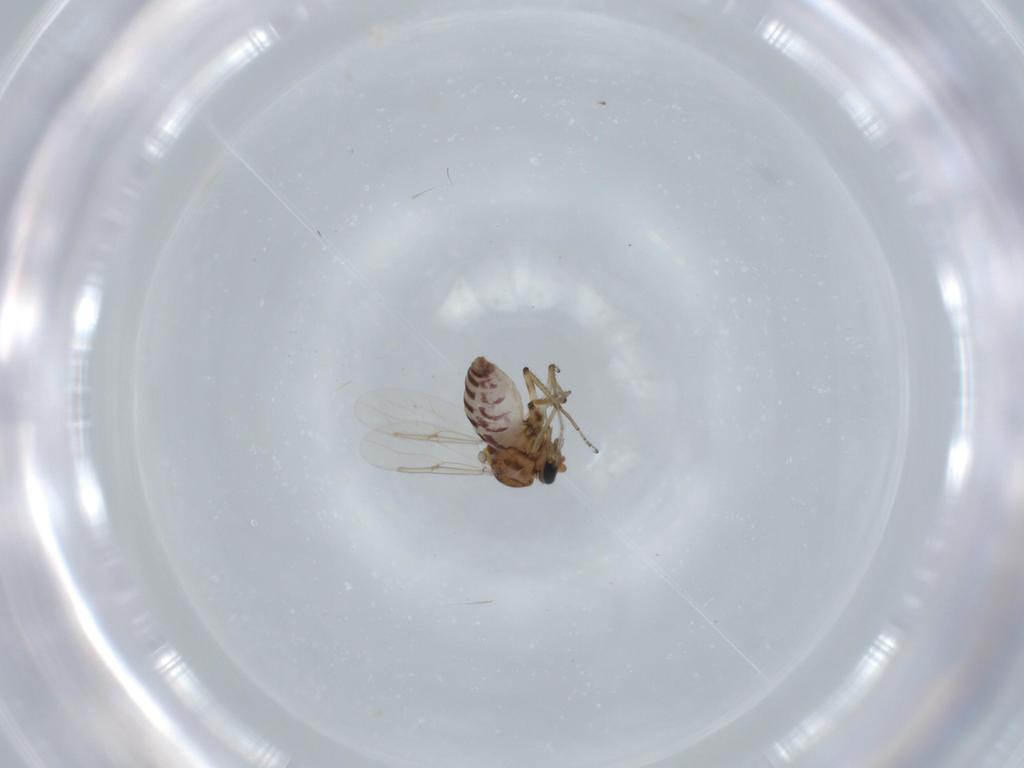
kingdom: Animalia
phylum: Arthropoda
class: Insecta
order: Diptera
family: Ceratopogonidae
